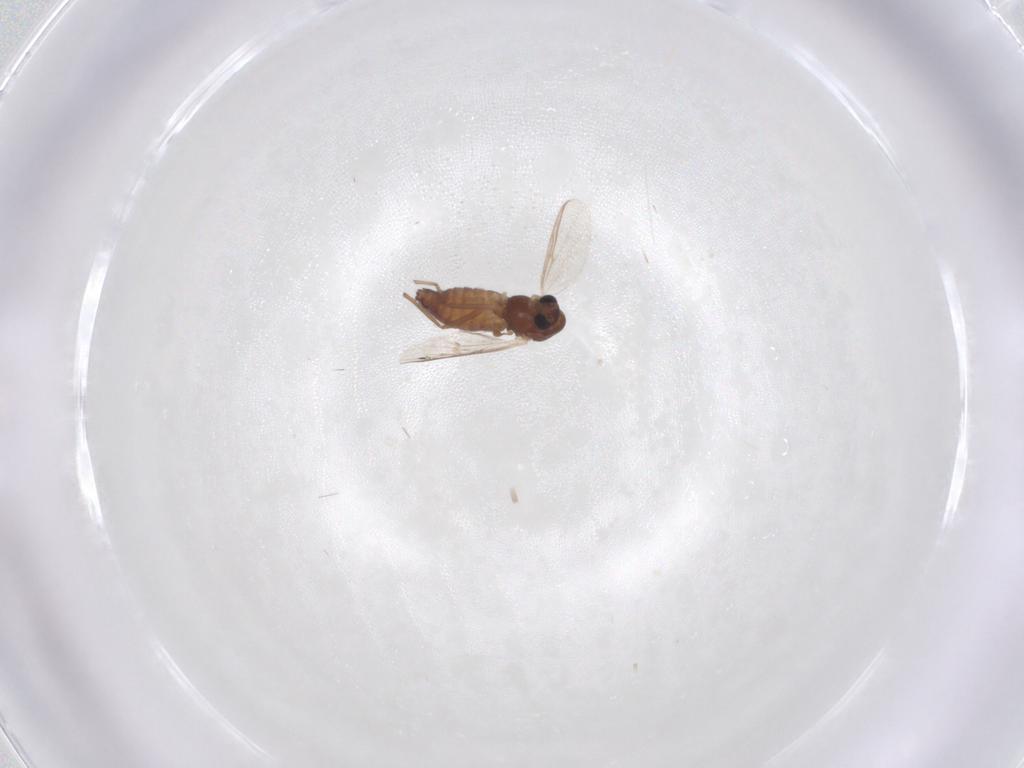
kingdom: Animalia
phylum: Arthropoda
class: Insecta
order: Diptera
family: Chironomidae
